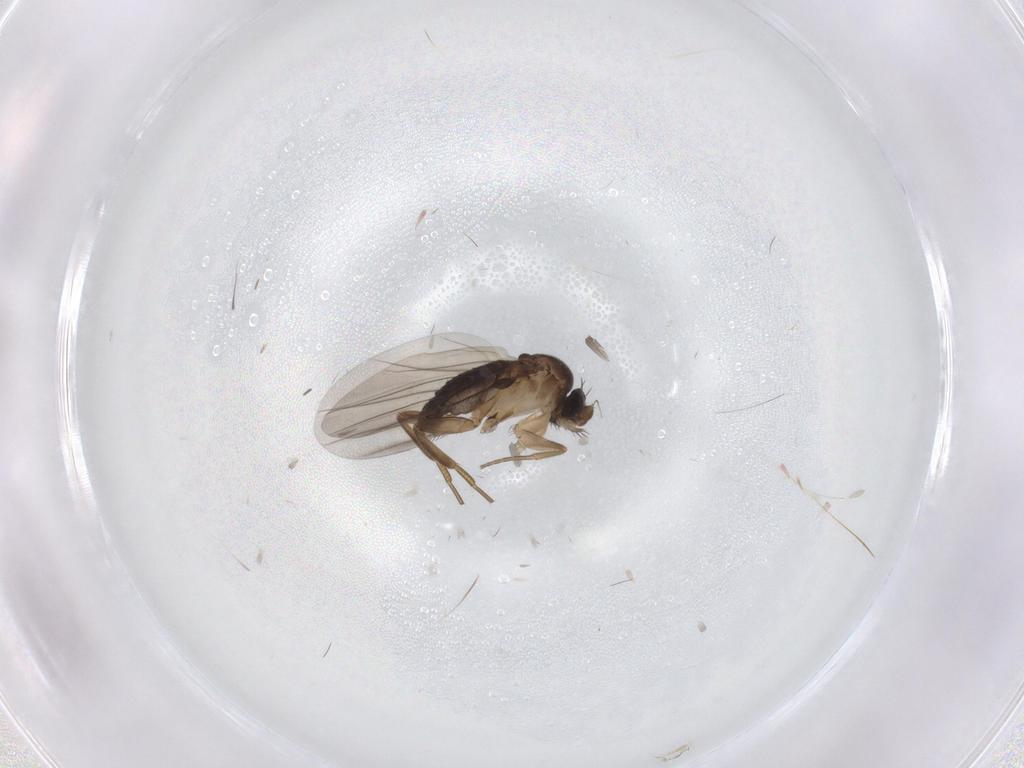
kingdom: Animalia
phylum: Arthropoda
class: Insecta
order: Diptera
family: Phoridae
